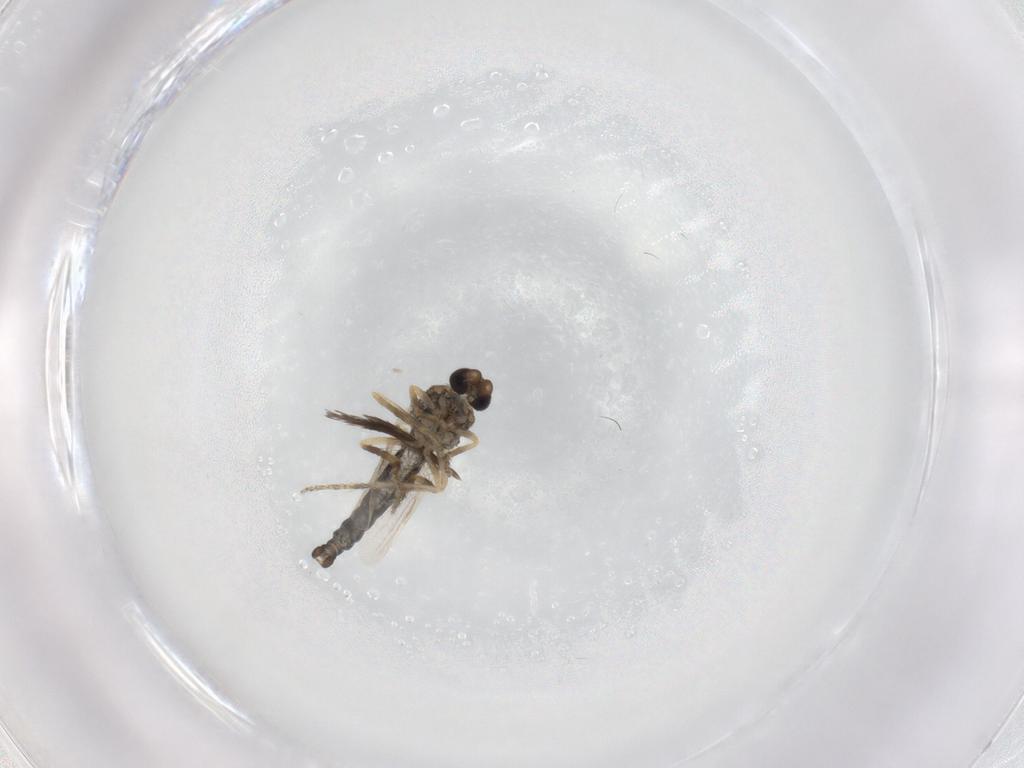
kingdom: Animalia
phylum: Arthropoda
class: Insecta
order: Diptera
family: Ceratopogonidae
